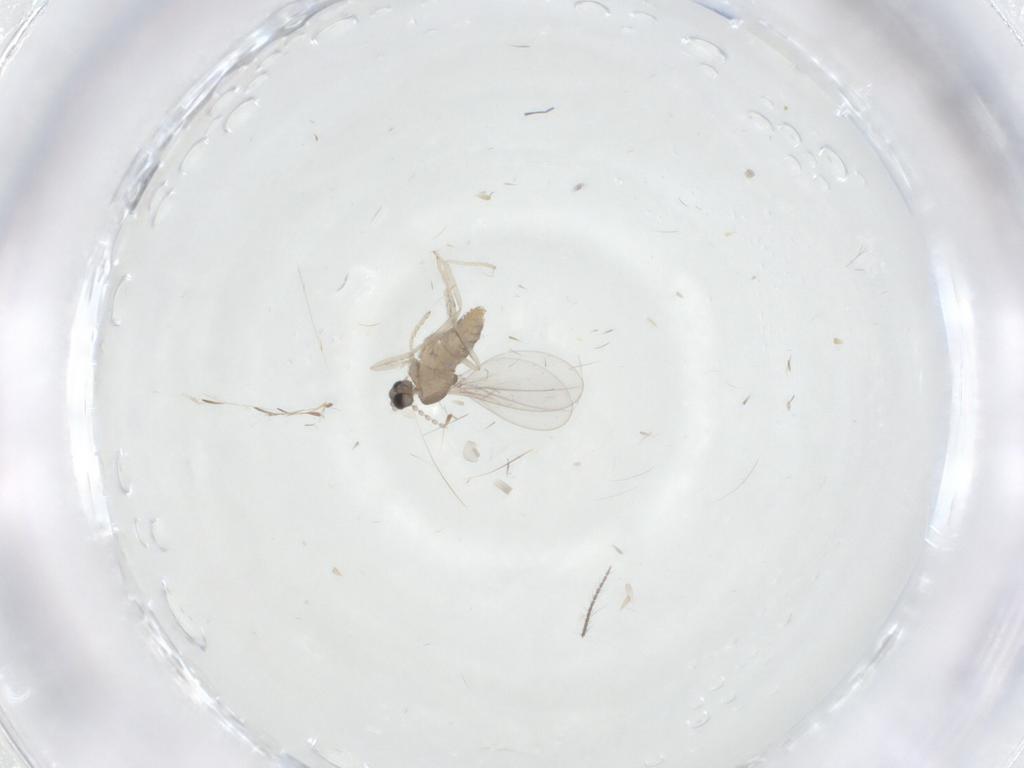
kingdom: Animalia
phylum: Arthropoda
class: Insecta
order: Diptera
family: Cecidomyiidae
